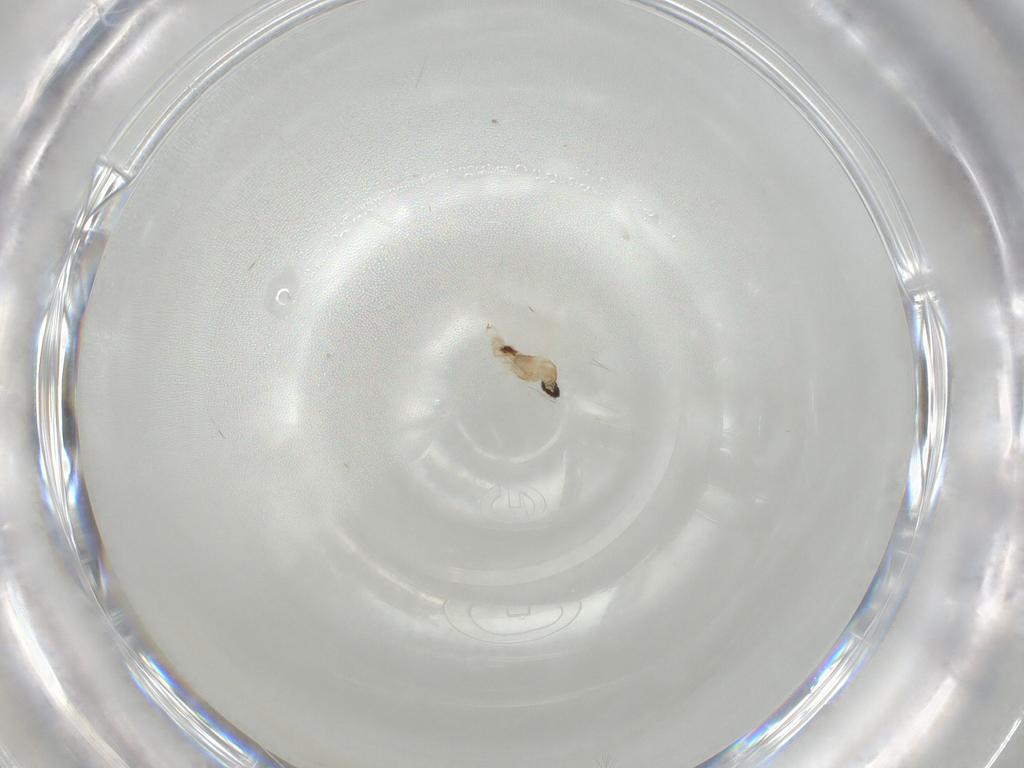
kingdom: Animalia
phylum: Arthropoda
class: Insecta
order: Diptera
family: Cecidomyiidae
